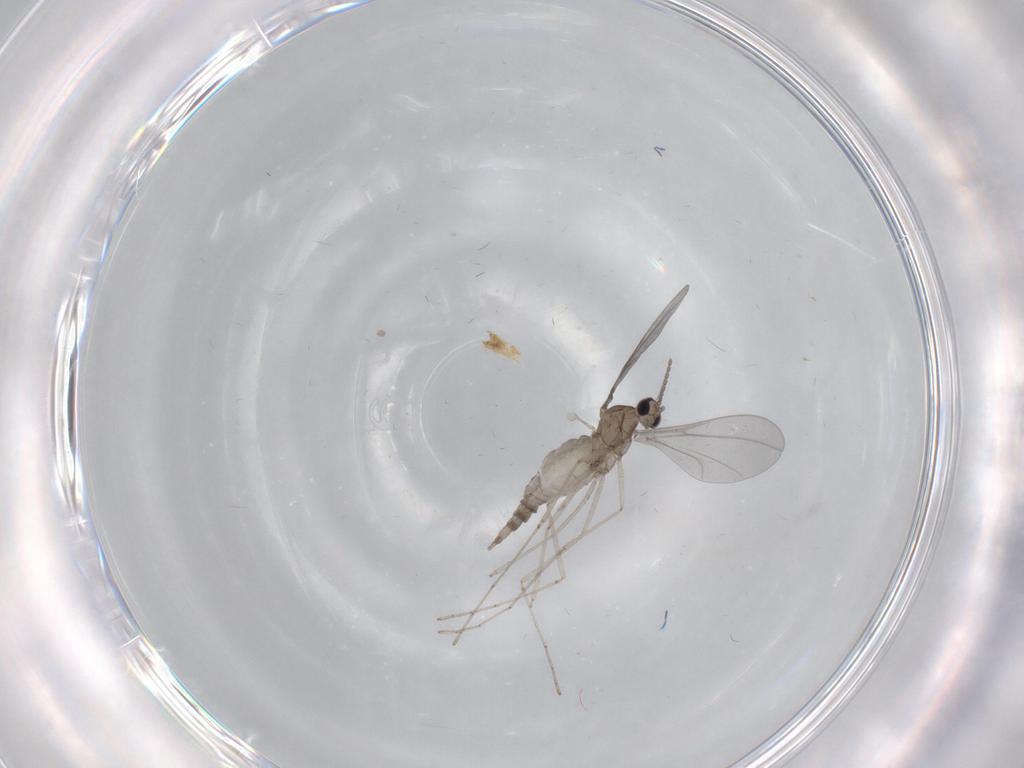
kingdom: Animalia
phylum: Arthropoda
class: Insecta
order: Diptera
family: Cecidomyiidae
